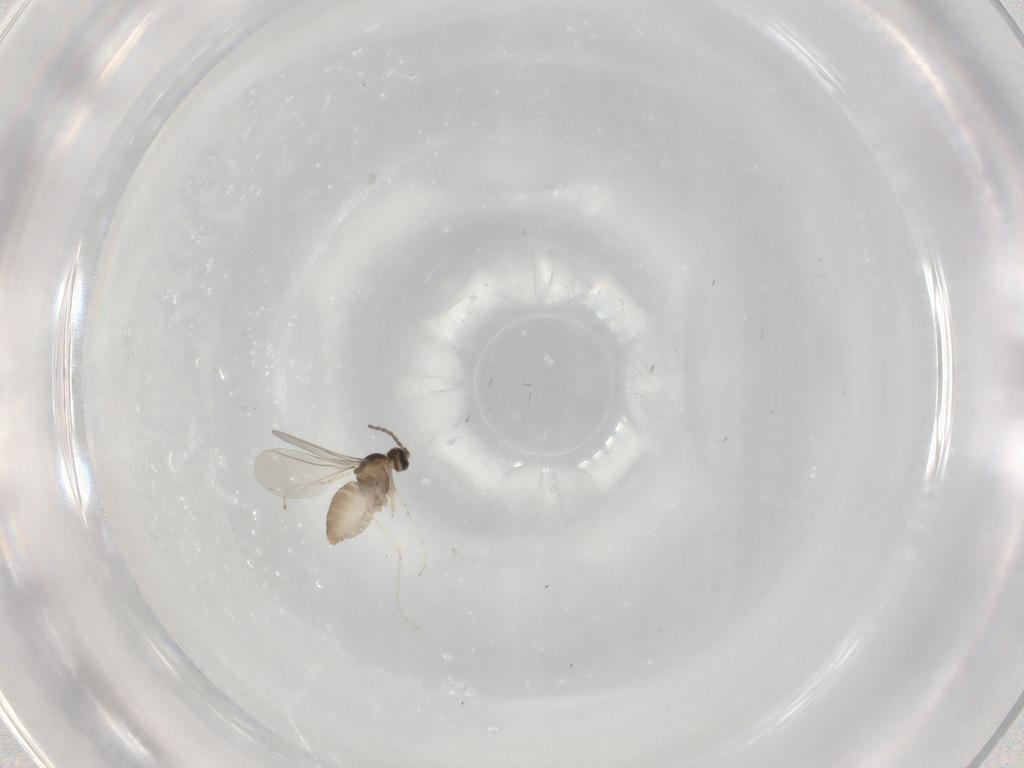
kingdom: Animalia
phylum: Arthropoda
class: Insecta
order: Diptera
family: Cecidomyiidae
